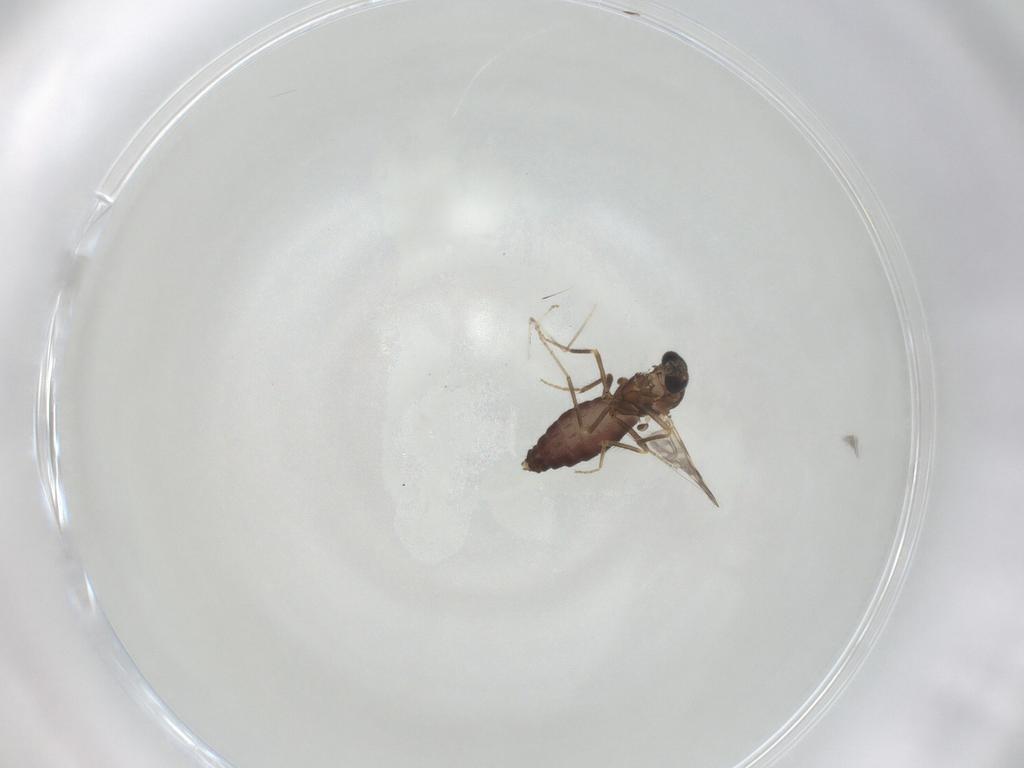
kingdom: Animalia
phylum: Arthropoda
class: Insecta
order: Diptera
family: Ceratopogonidae
